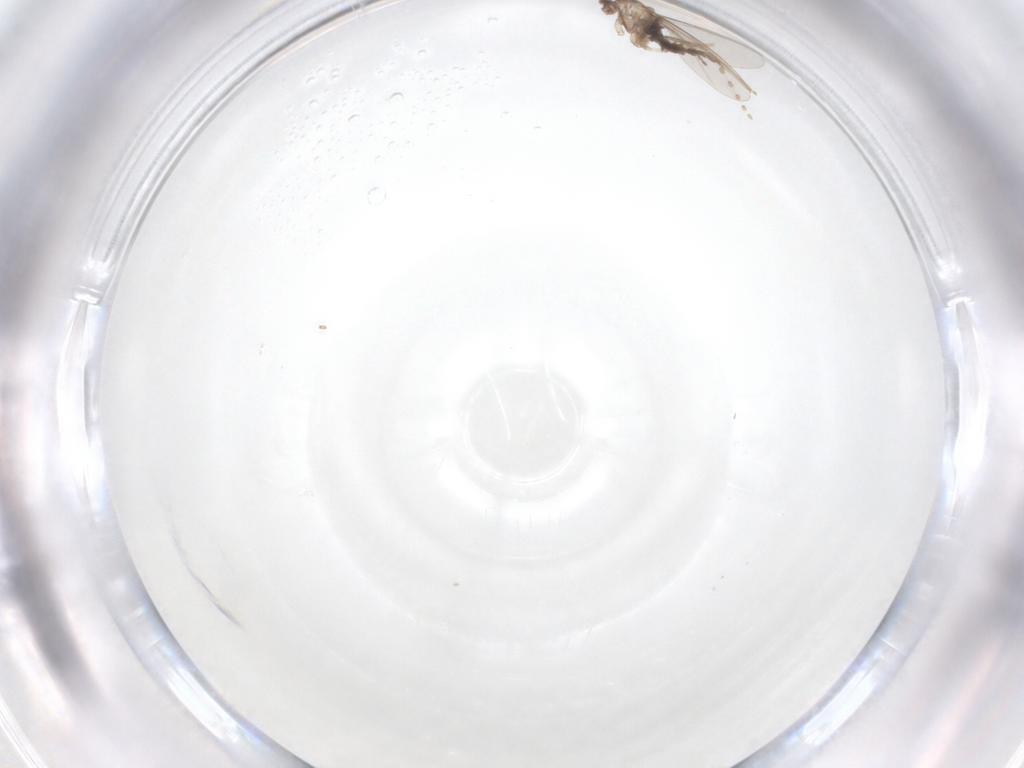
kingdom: Animalia
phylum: Arthropoda
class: Insecta
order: Diptera
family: Cecidomyiidae
